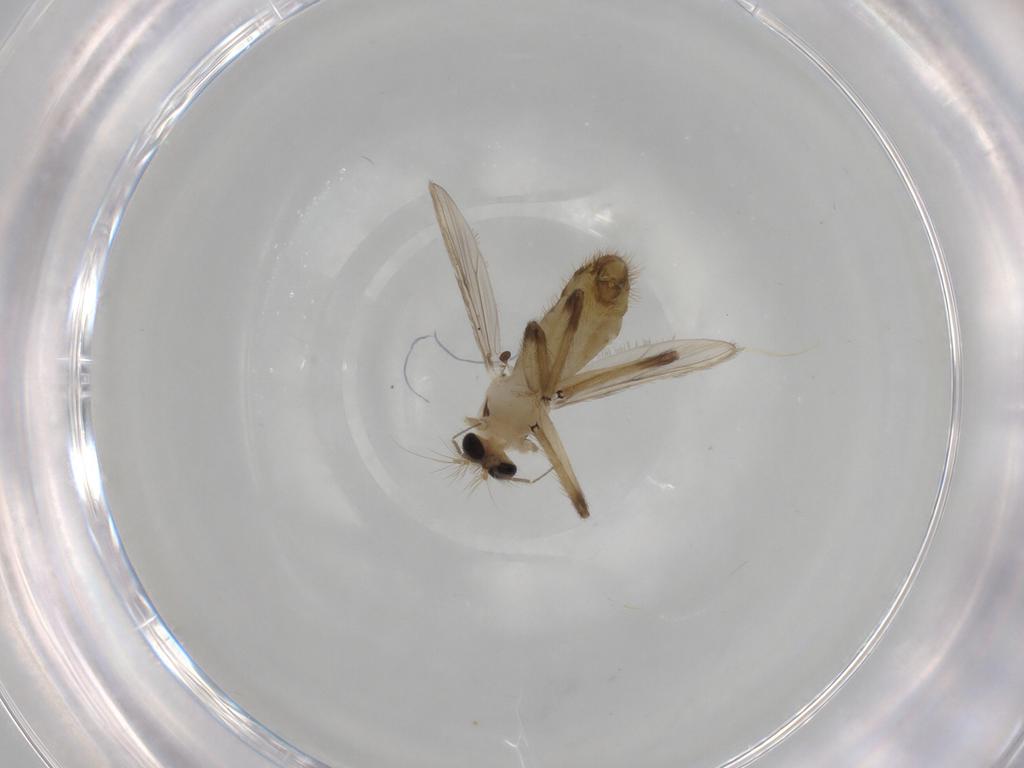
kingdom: Animalia
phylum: Arthropoda
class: Insecta
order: Diptera
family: Chironomidae
